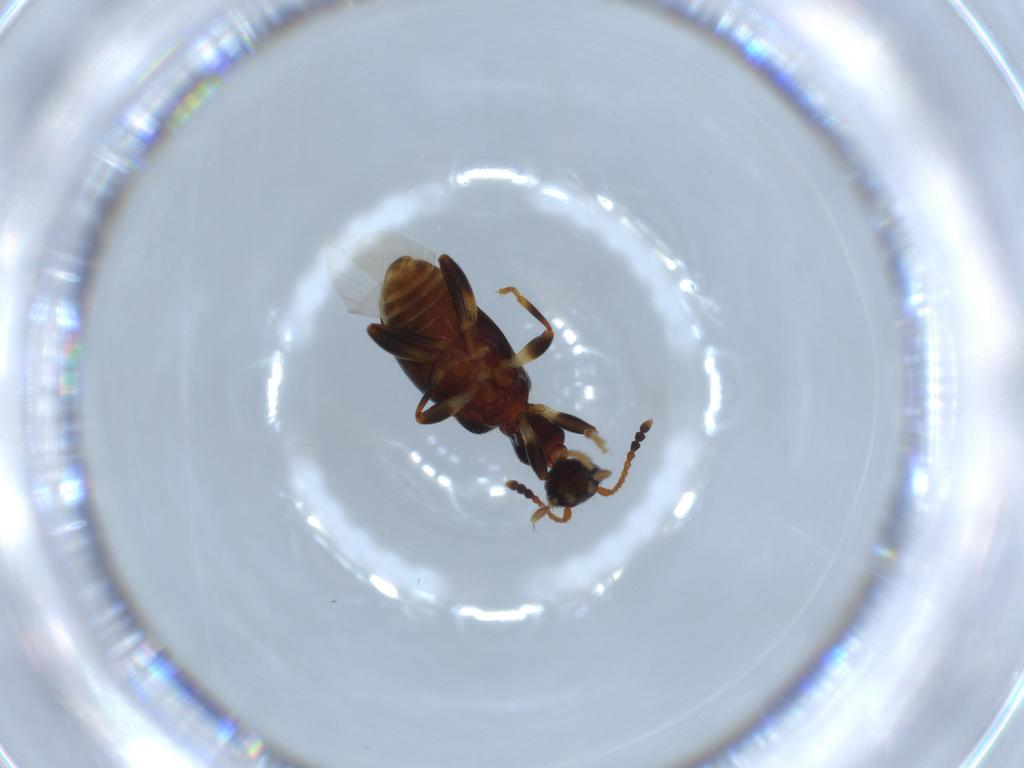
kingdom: Animalia
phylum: Arthropoda
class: Insecta
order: Coleoptera
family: Anthicidae
